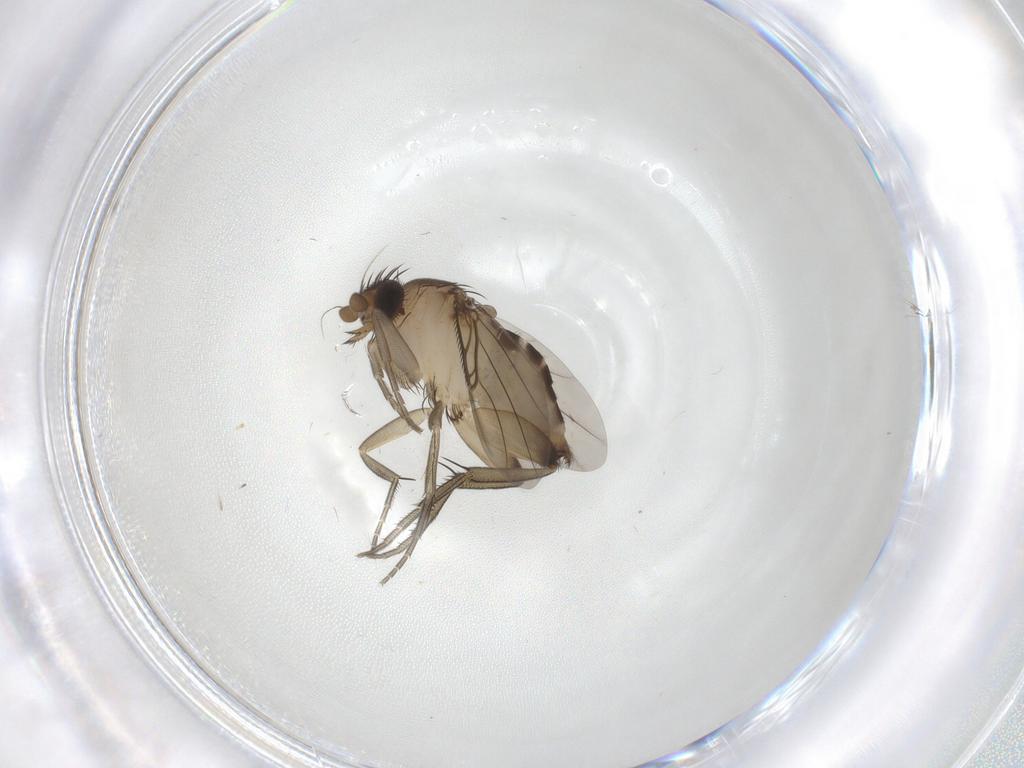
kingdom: Animalia
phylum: Arthropoda
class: Insecta
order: Diptera
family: Phoridae
